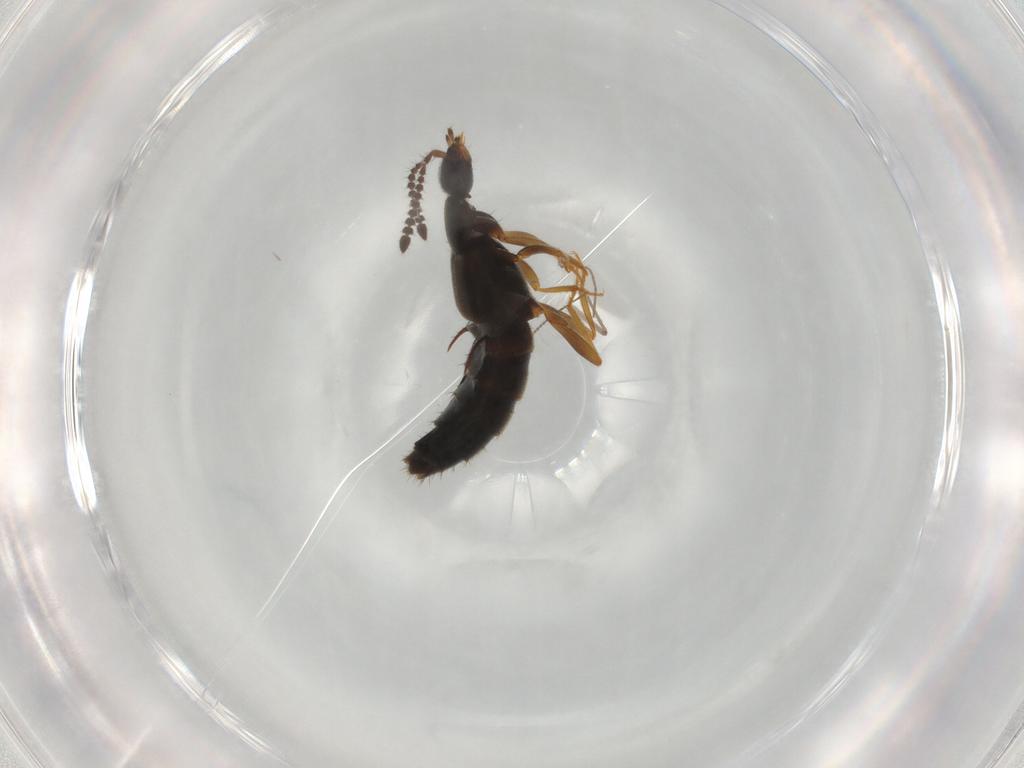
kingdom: Animalia
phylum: Arthropoda
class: Insecta
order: Coleoptera
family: Staphylinidae
